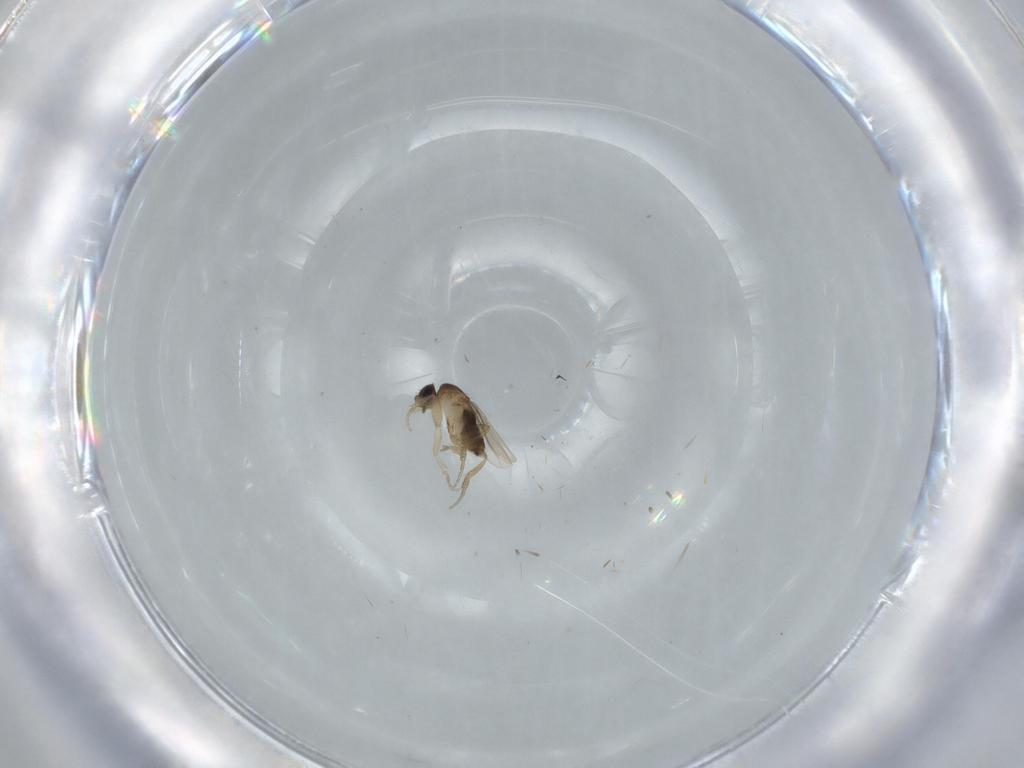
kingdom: Animalia
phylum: Arthropoda
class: Insecta
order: Diptera
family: Phoridae
